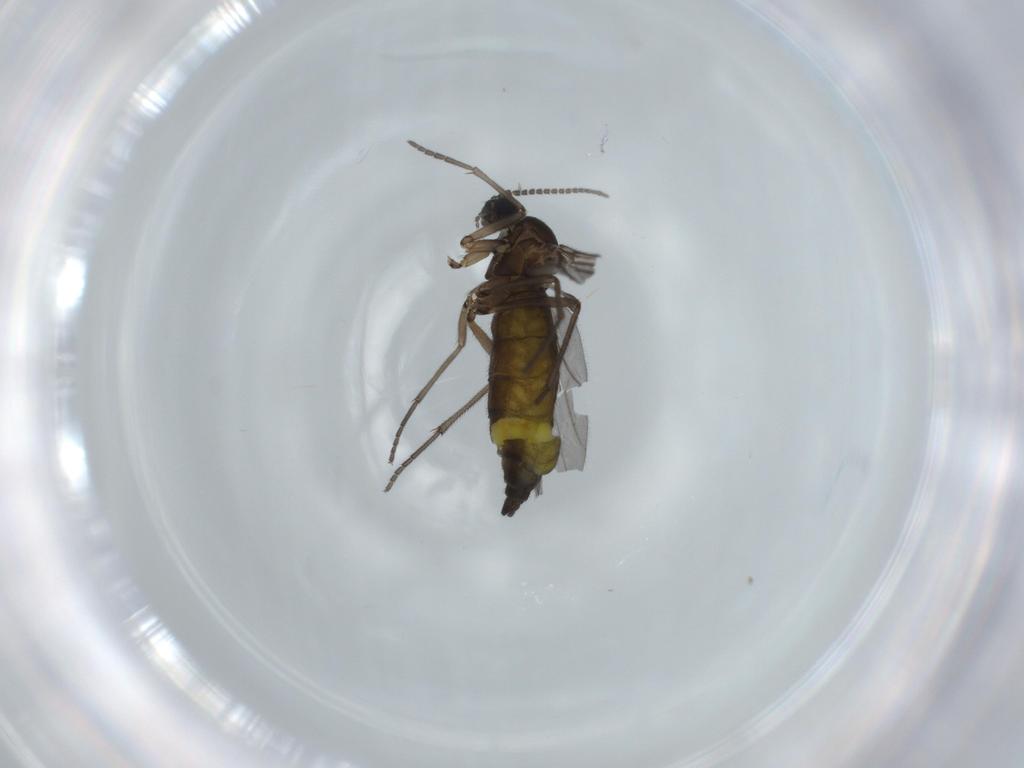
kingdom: Animalia
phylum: Arthropoda
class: Insecta
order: Diptera
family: Sciaridae
